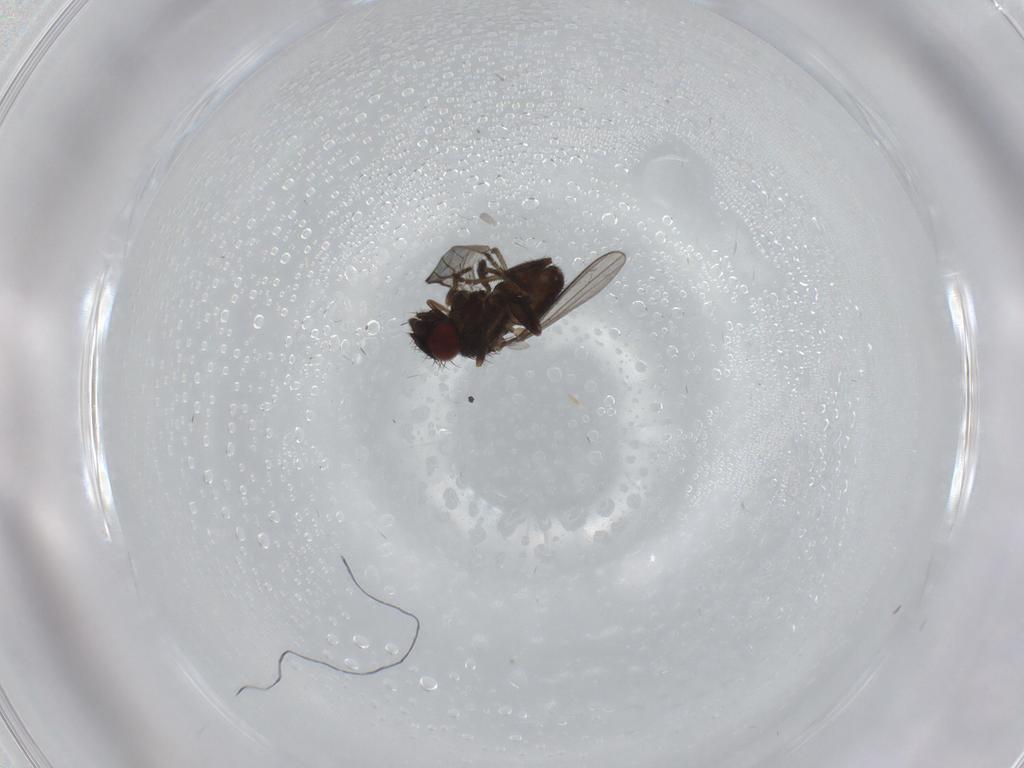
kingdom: Animalia
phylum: Arthropoda
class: Insecta
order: Diptera
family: Milichiidae
